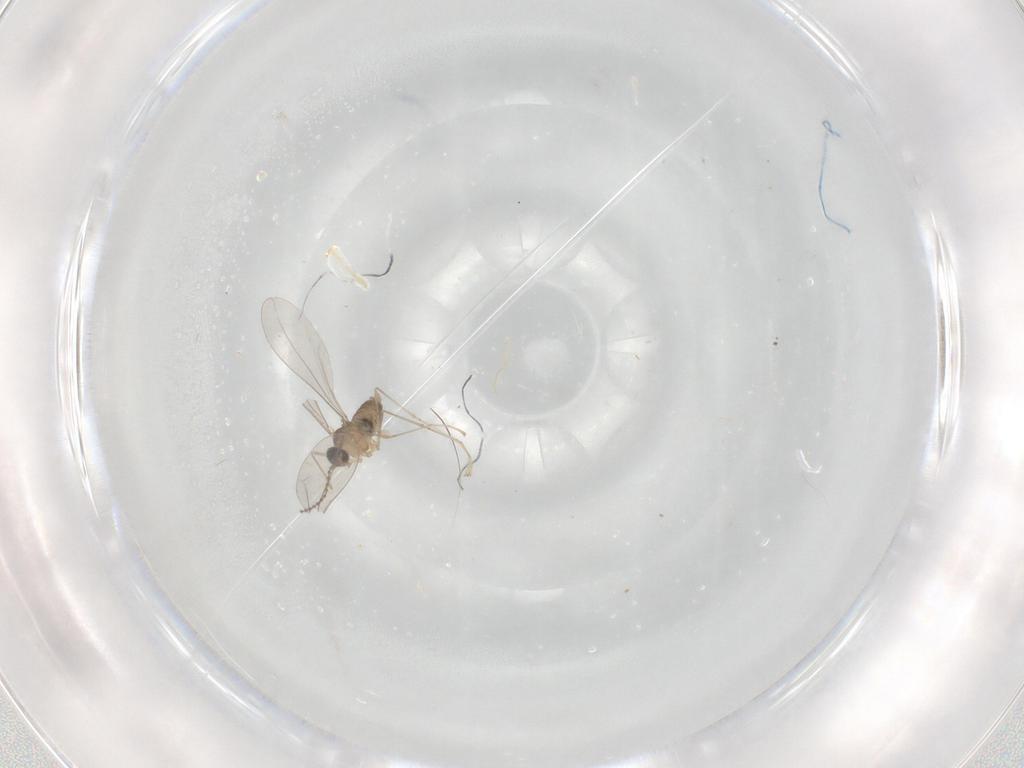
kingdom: Animalia
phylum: Arthropoda
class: Insecta
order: Diptera
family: Cecidomyiidae
